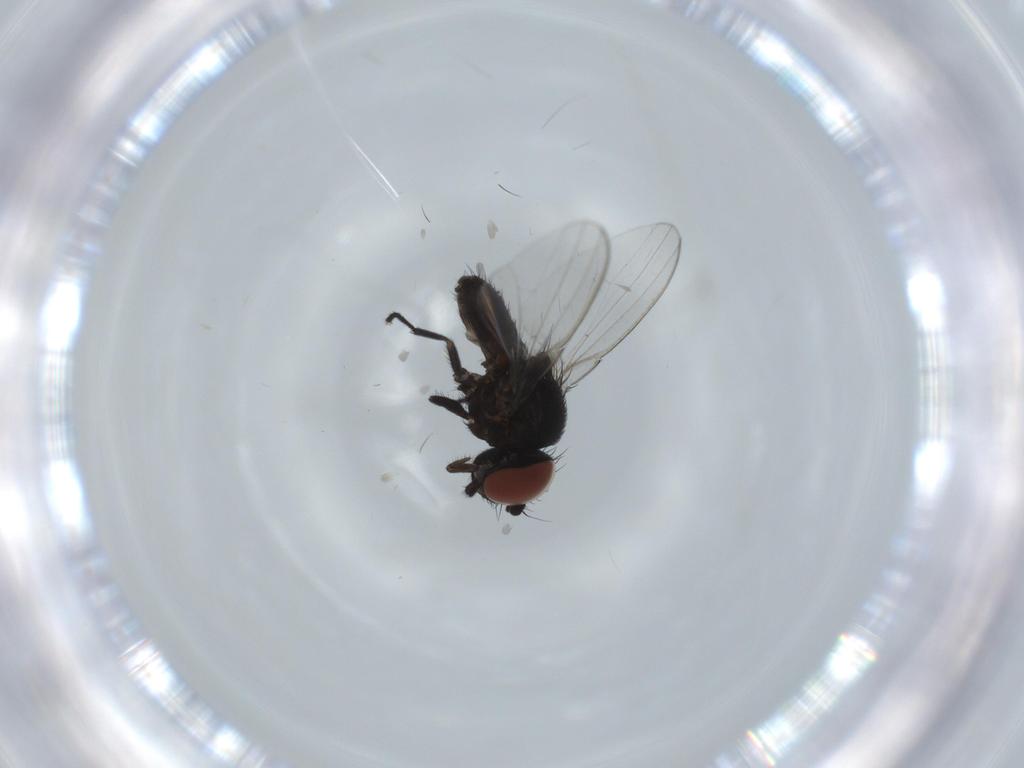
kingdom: Animalia
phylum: Arthropoda
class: Insecta
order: Diptera
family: Milichiidae
